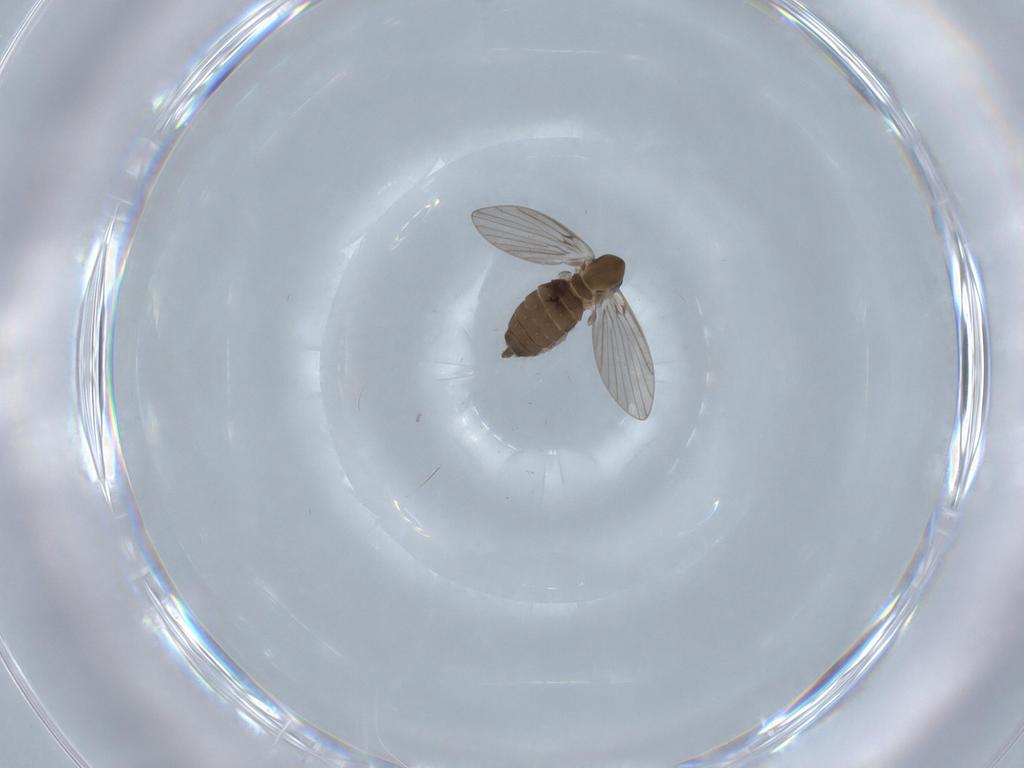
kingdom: Animalia
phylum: Arthropoda
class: Insecta
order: Diptera
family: Psychodidae
